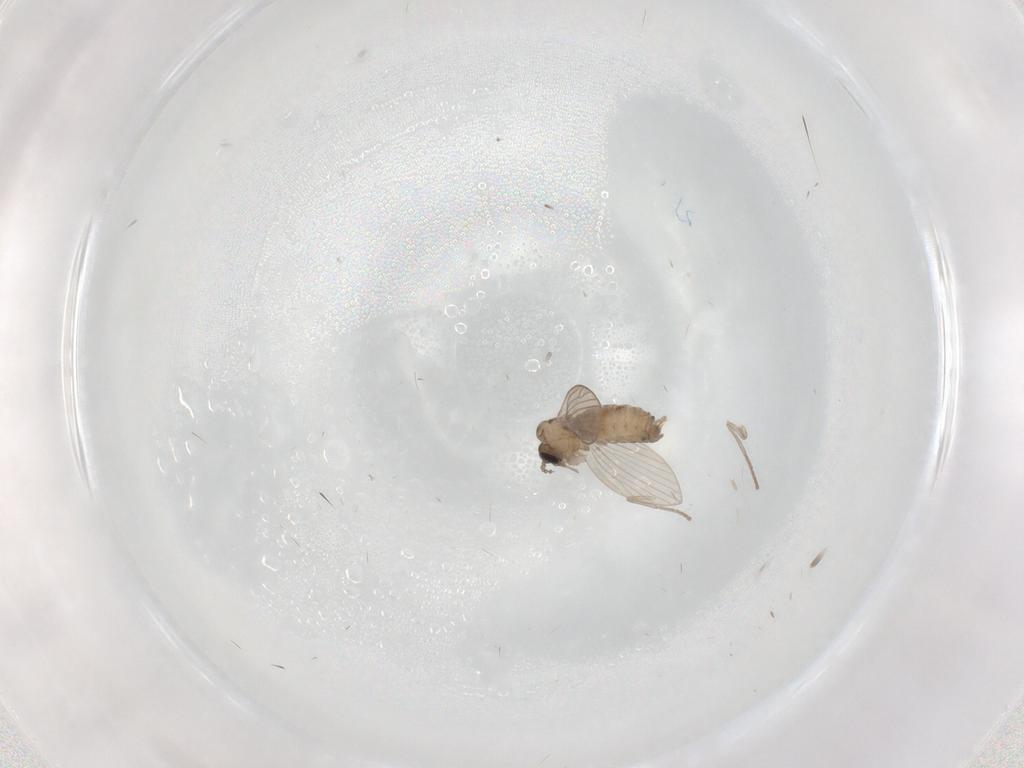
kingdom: Animalia
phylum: Arthropoda
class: Insecta
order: Diptera
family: Psychodidae
